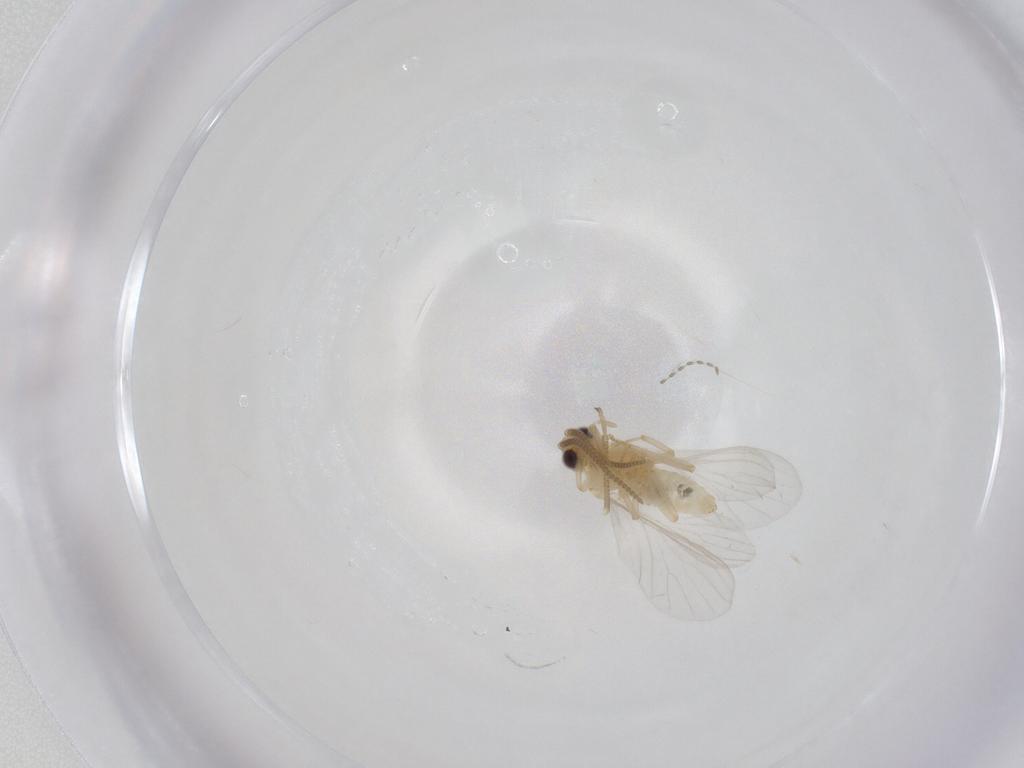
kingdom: Animalia
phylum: Arthropoda
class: Insecta
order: Neuroptera
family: Coniopterygidae
